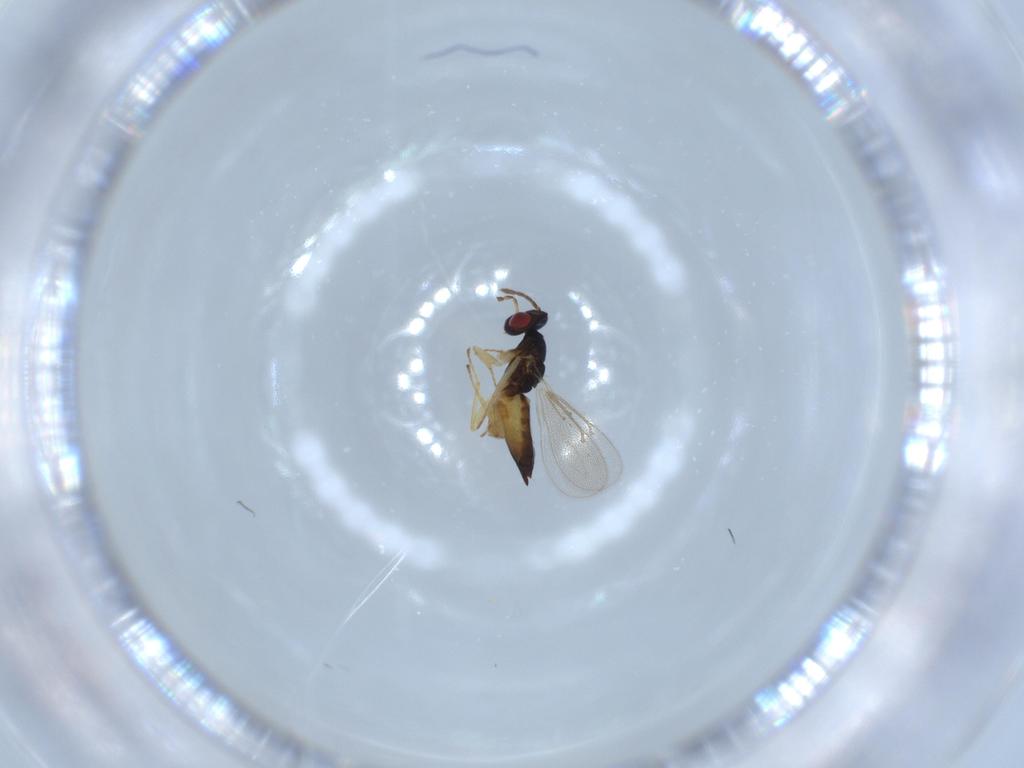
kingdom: Animalia
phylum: Arthropoda
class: Insecta
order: Hymenoptera
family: Eulophidae
